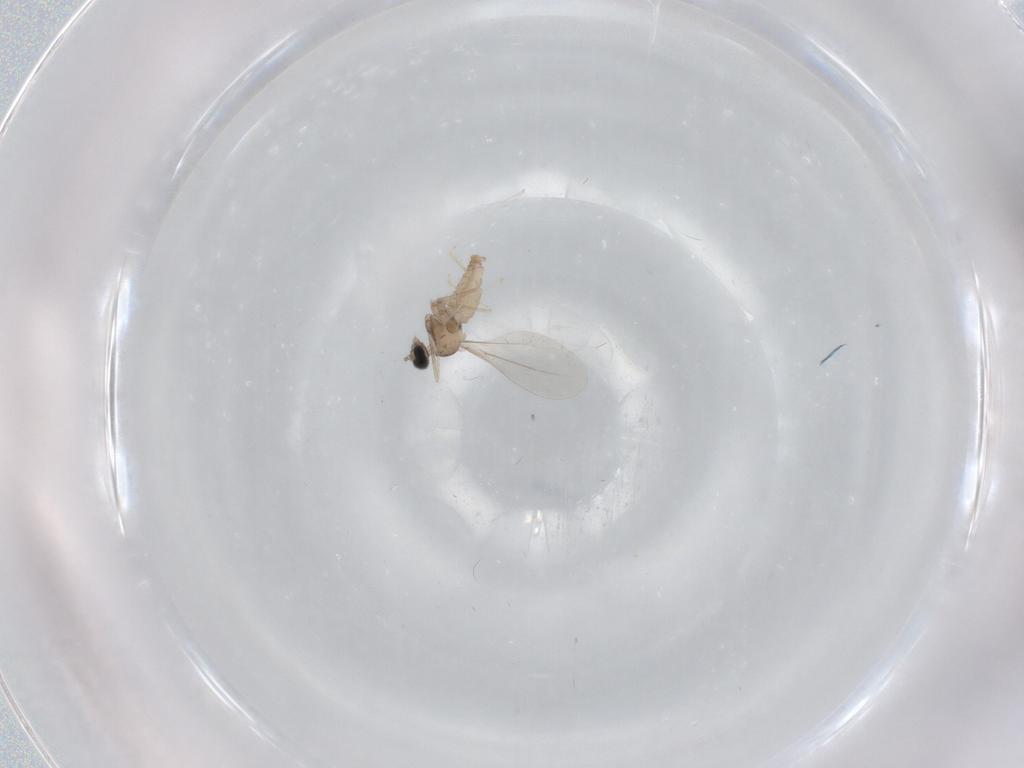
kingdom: Animalia
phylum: Arthropoda
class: Insecta
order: Diptera
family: Cecidomyiidae
